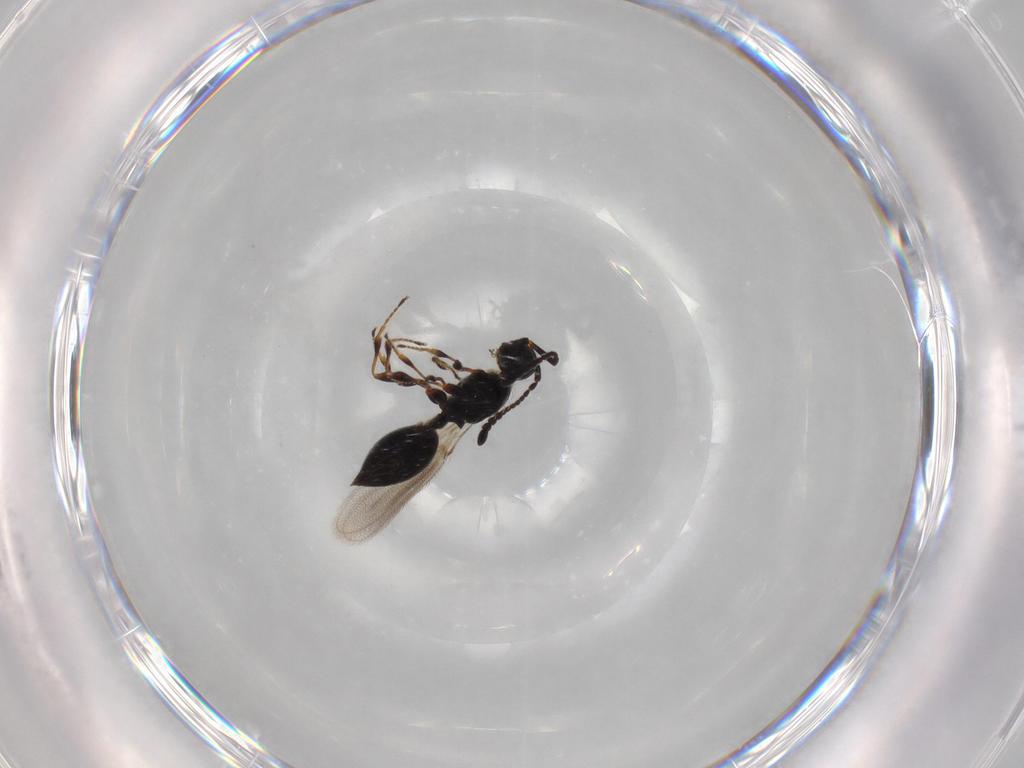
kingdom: Animalia
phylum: Arthropoda
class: Insecta
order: Hymenoptera
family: Diapriidae
